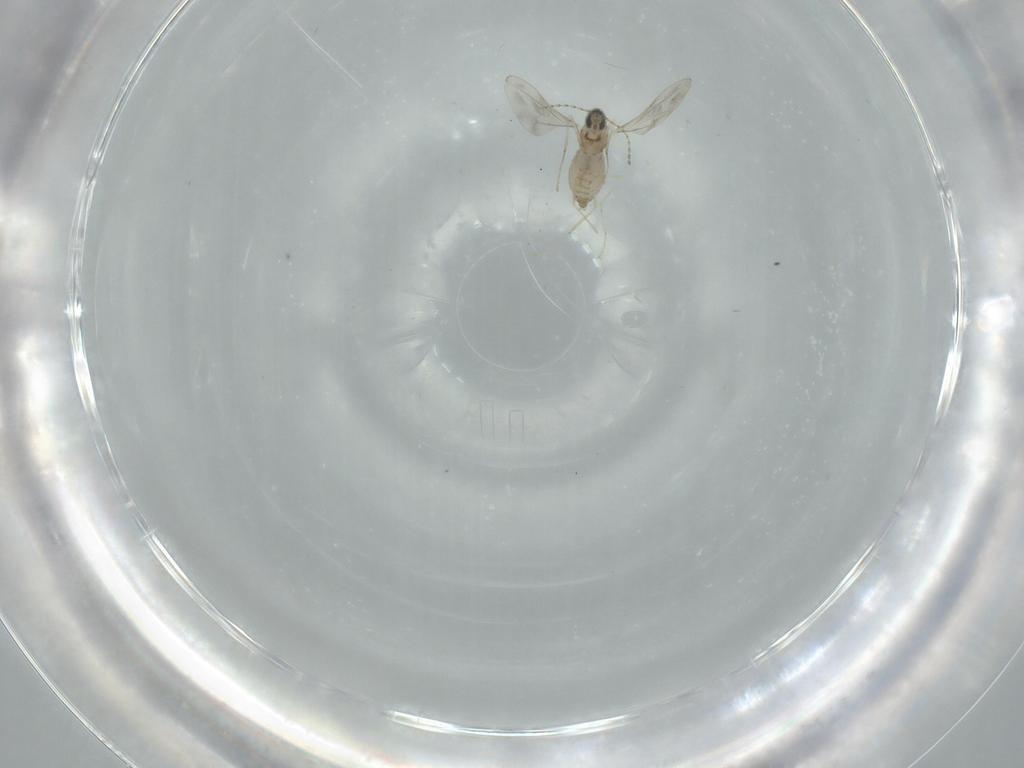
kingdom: Animalia
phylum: Arthropoda
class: Insecta
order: Diptera
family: Cecidomyiidae
